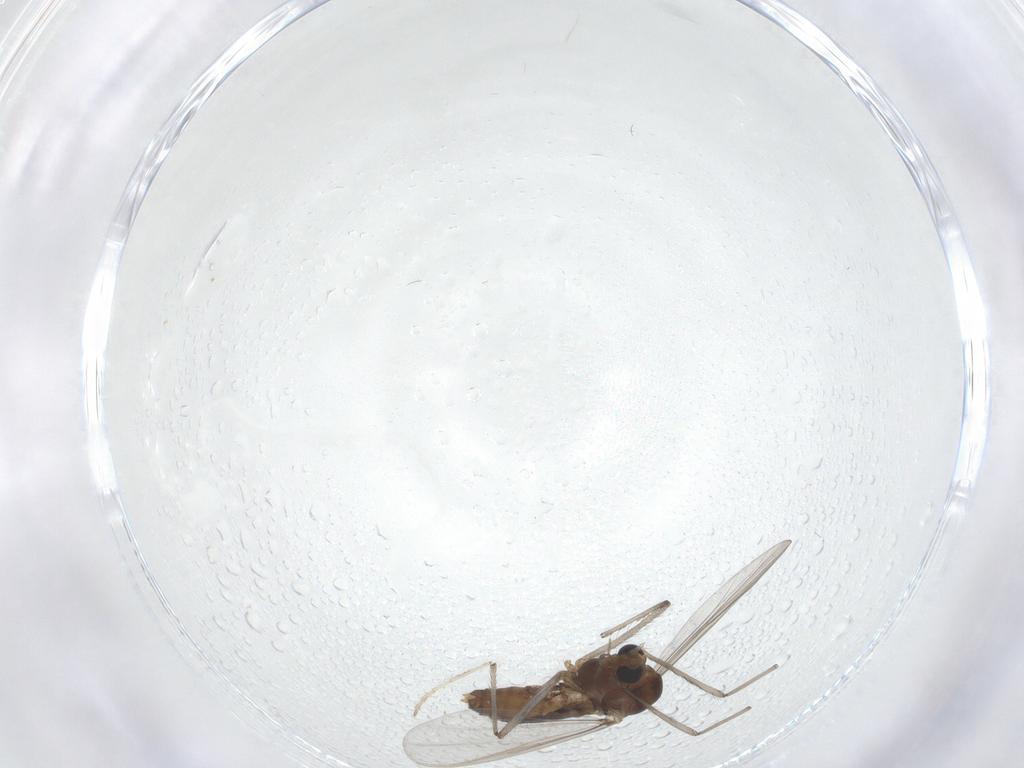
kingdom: Animalia
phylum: Arthropoda
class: Insecta
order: Diptera
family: Chironomidae
